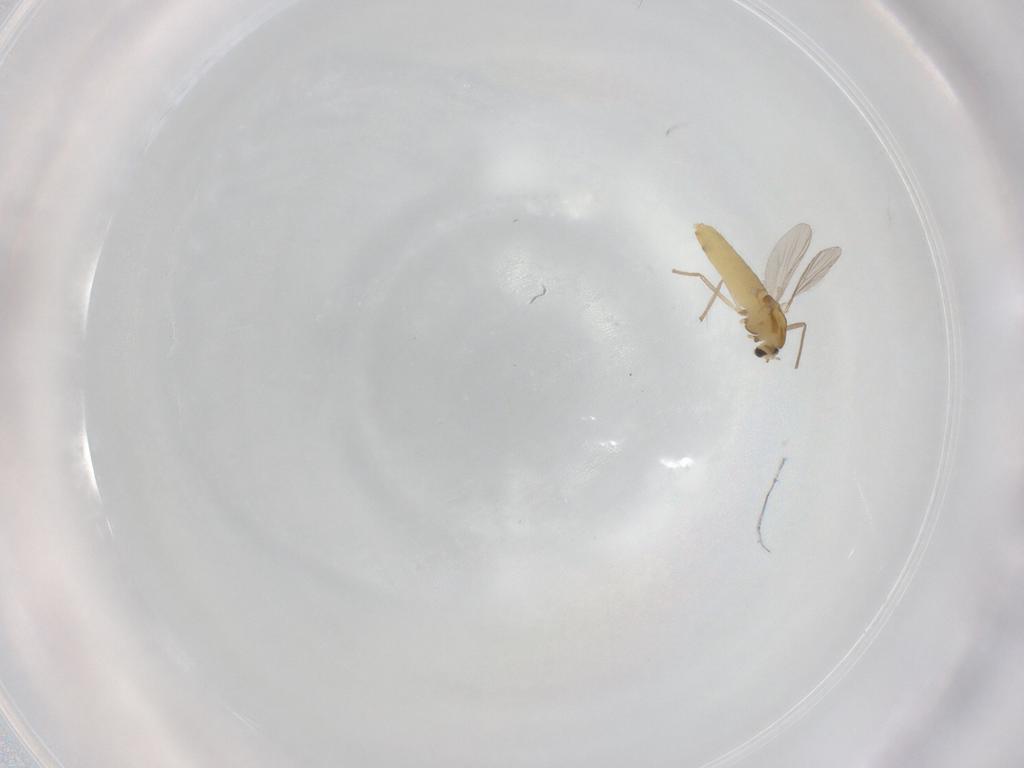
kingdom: Animalia
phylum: Arthropoda
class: Insecta
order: Diptera
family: Chironomidae
